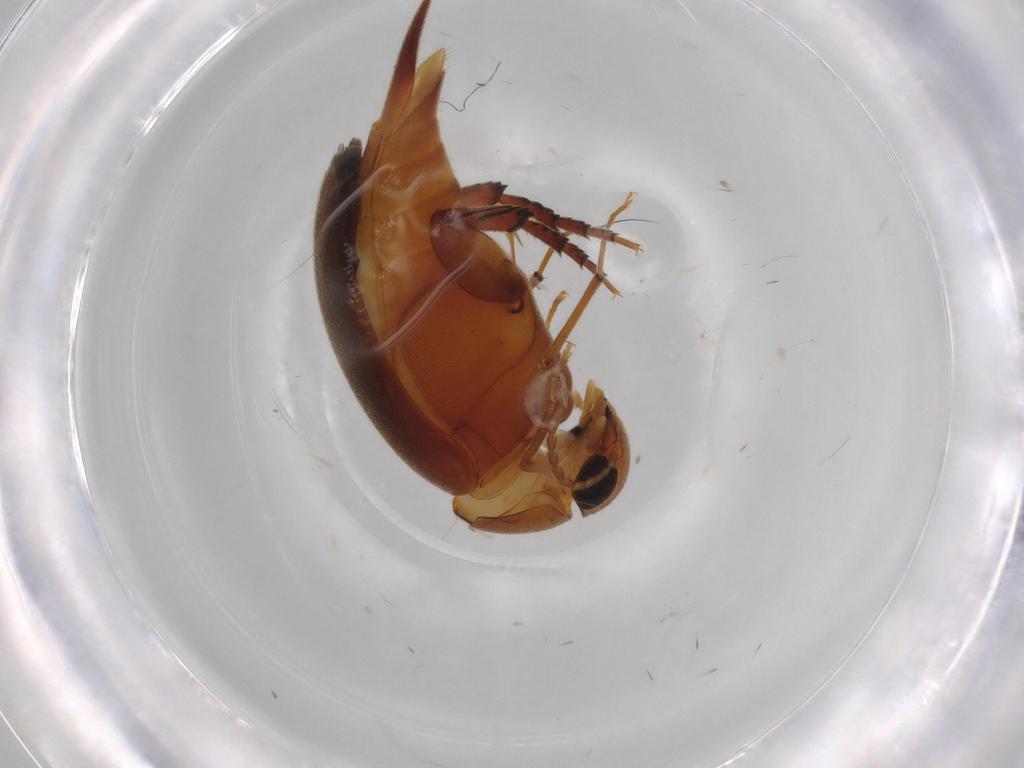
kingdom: Animalia
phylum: Arthropoda
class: Insecta
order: Coleoptera
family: Mordellidae
